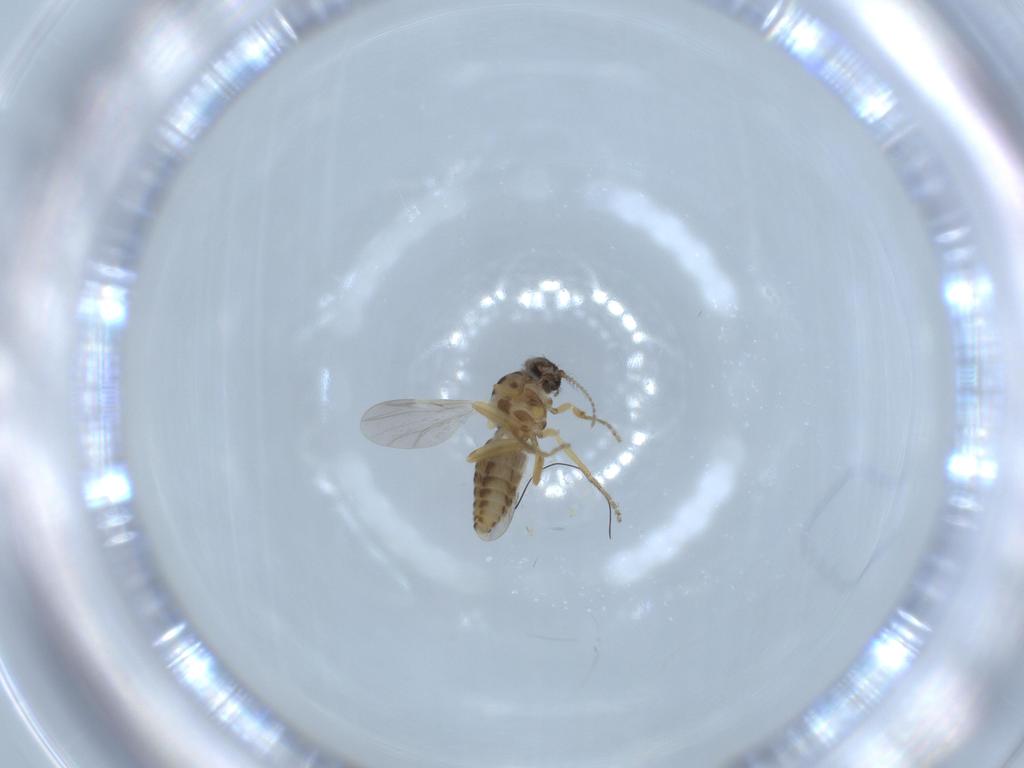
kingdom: Animalia
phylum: Arthropoda
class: Insecta
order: Diptera
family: Ceratopogonidae
